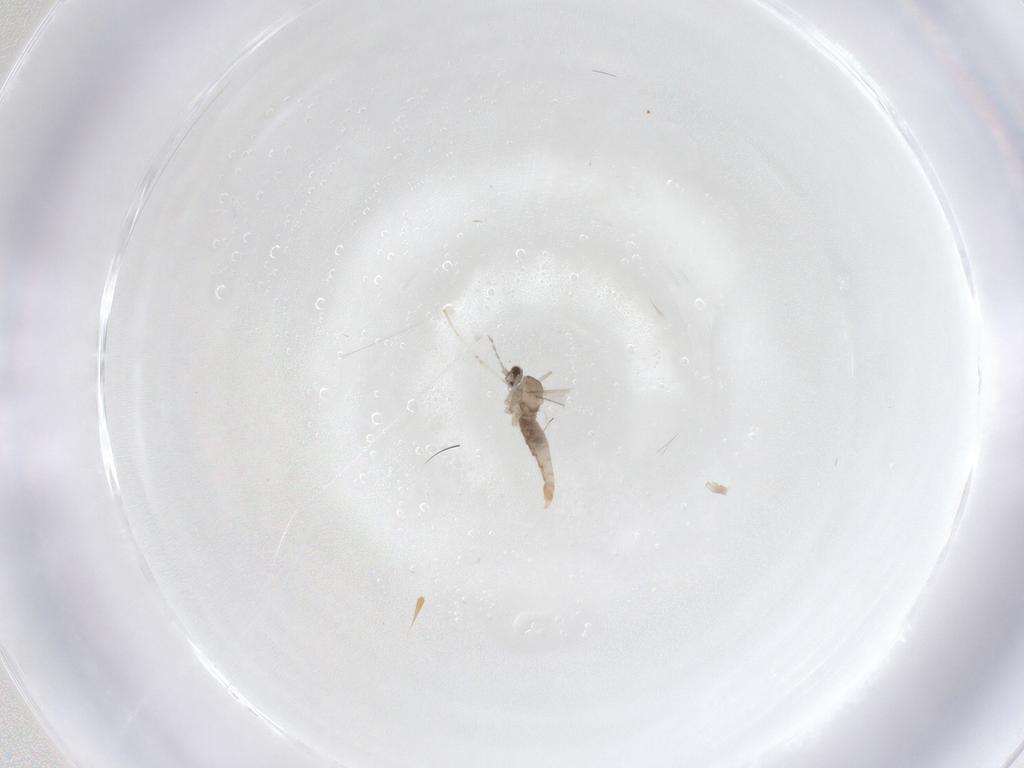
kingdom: Animalia
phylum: Arthropoda
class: Insecta
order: Diptera
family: Cecidomyiidae
